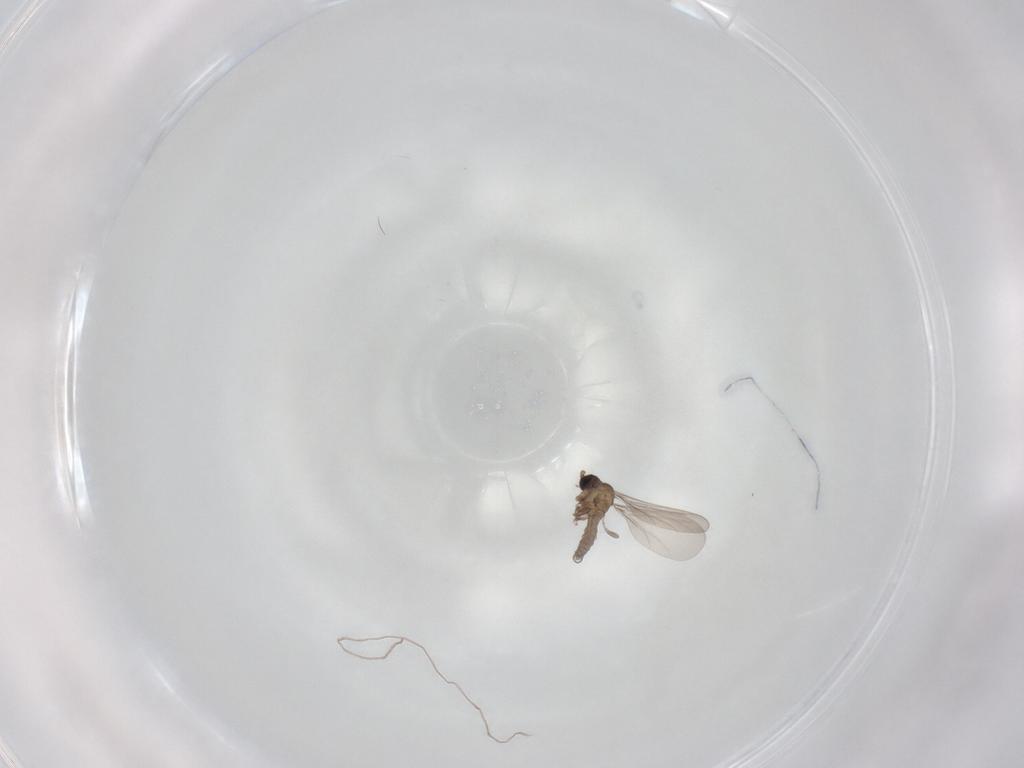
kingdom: Animalia
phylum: Arthropoda
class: Insecta
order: Diptera
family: Sciaridae
